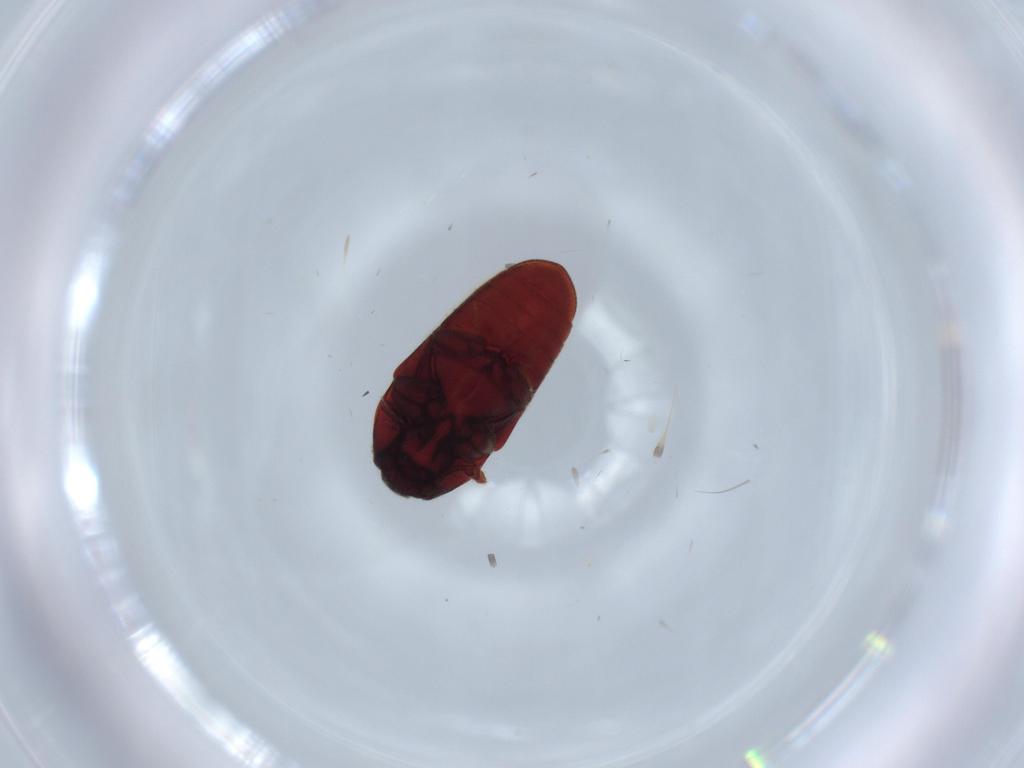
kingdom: Animalia
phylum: Arthropoda
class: Insecta
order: Coleoptera
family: Throscidae
